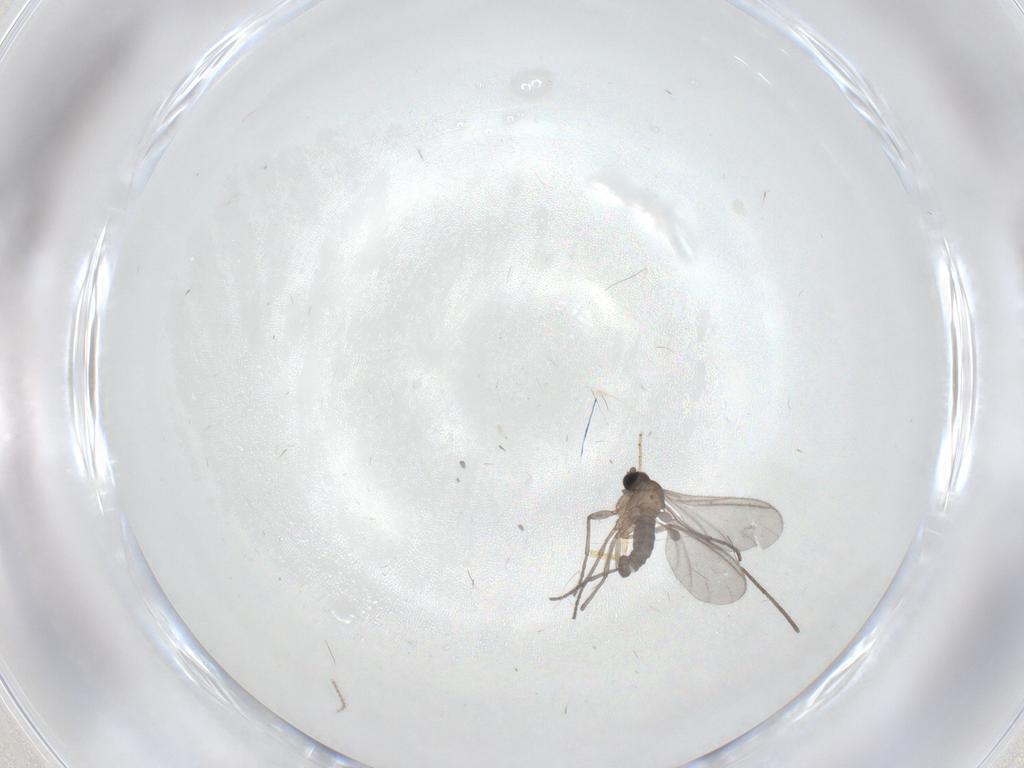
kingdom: Animalia
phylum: Arthropoda
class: Insecta
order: Diptera
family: Sciaridae
